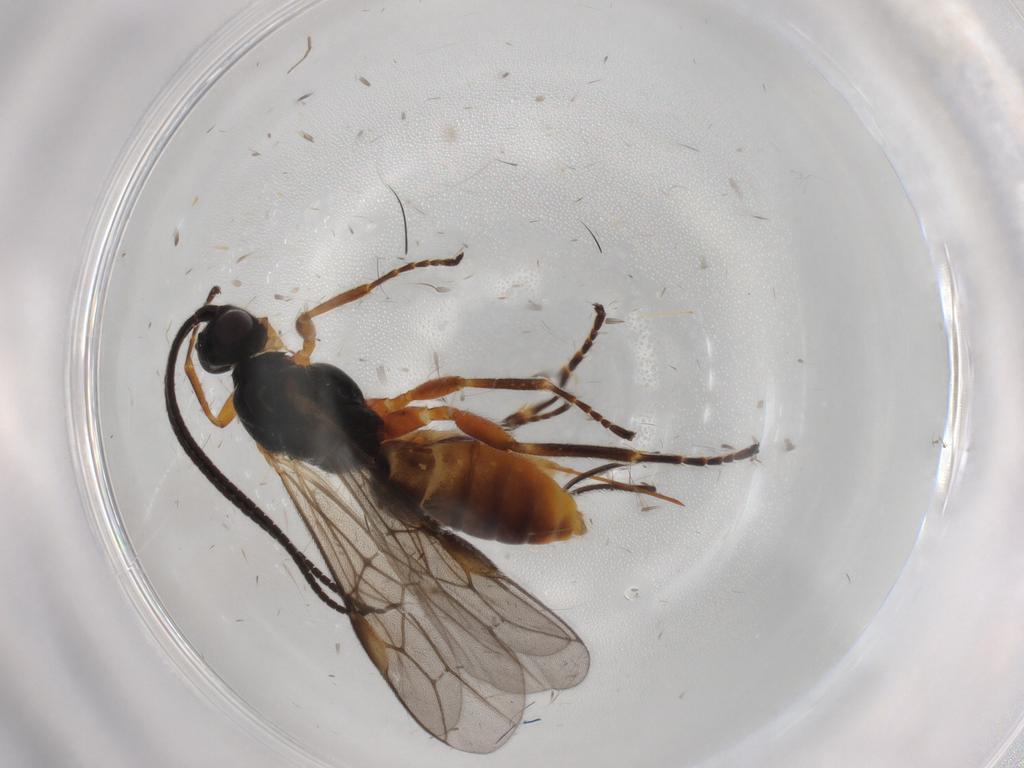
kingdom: Animalia
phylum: Arthropoda
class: Insecta
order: Hymenoptera
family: Braconidae
